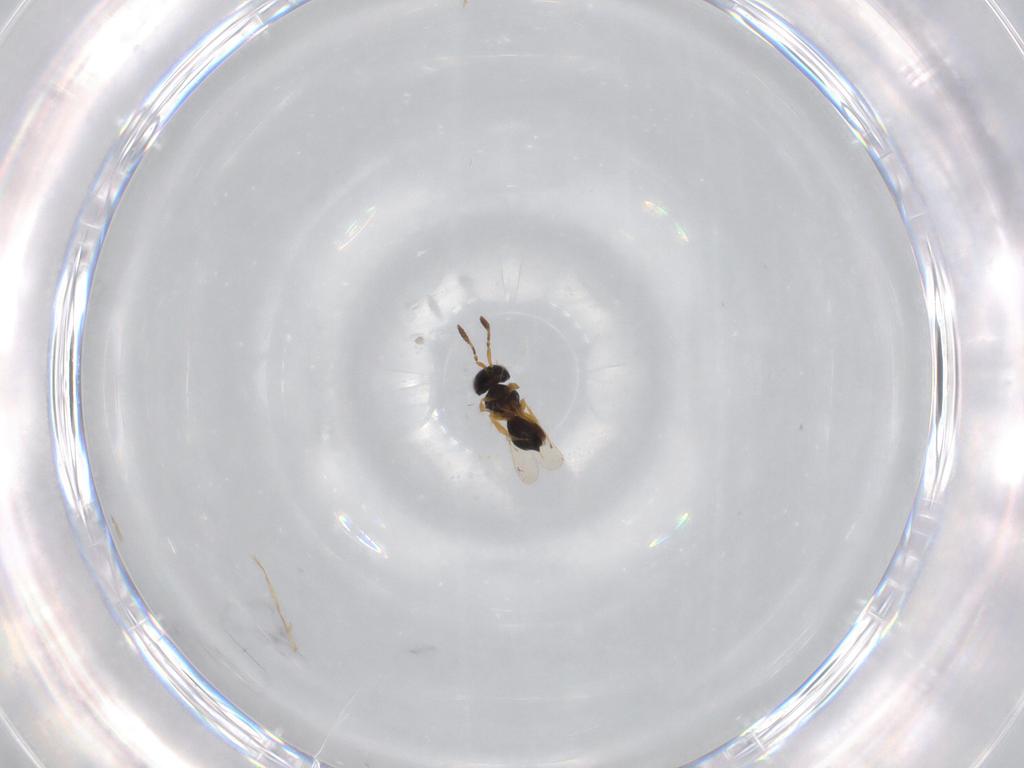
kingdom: Animalia
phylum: Arthropoda
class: Insecta
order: Hymenoptera
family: Scelionidae
